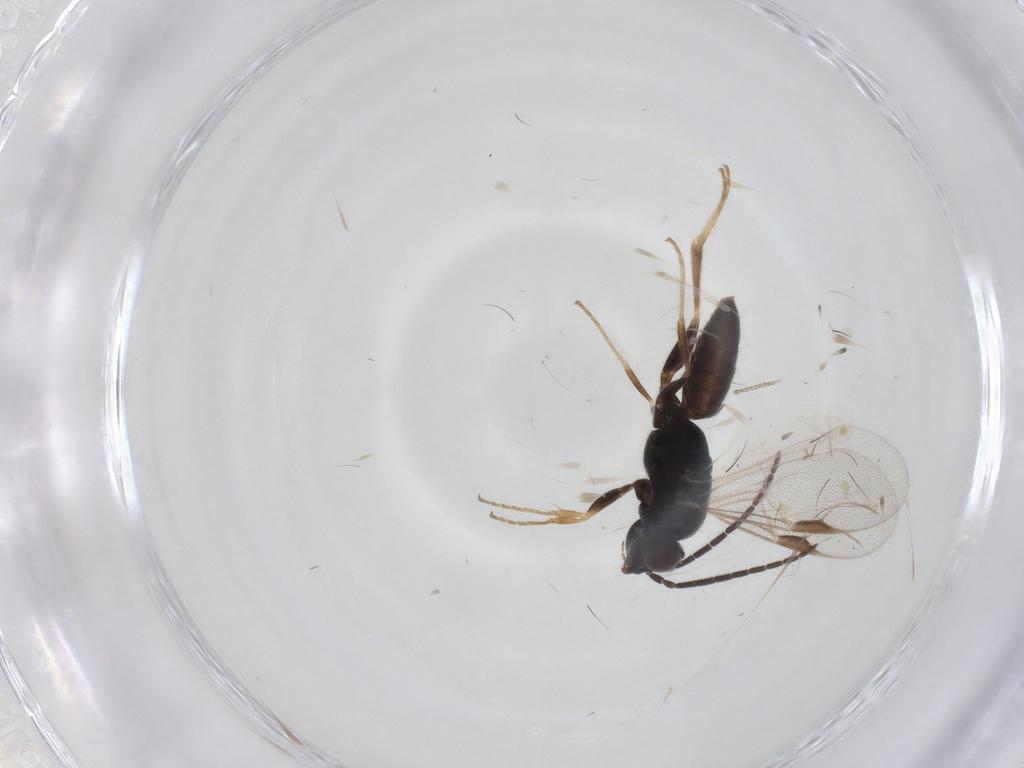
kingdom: Animalia
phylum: Arthropoda
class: Insecta
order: Hymenoptera
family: Dryinidae
